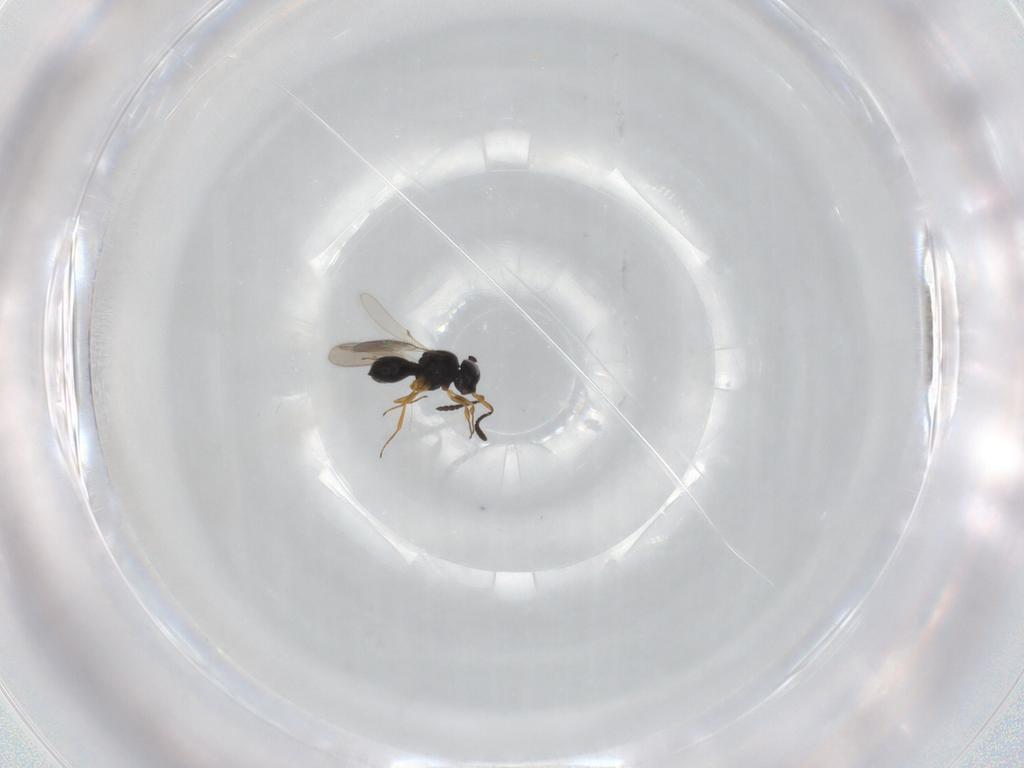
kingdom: Animalia
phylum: Arthropoda
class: Insecta
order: Hymenoptera
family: Scelionidae
